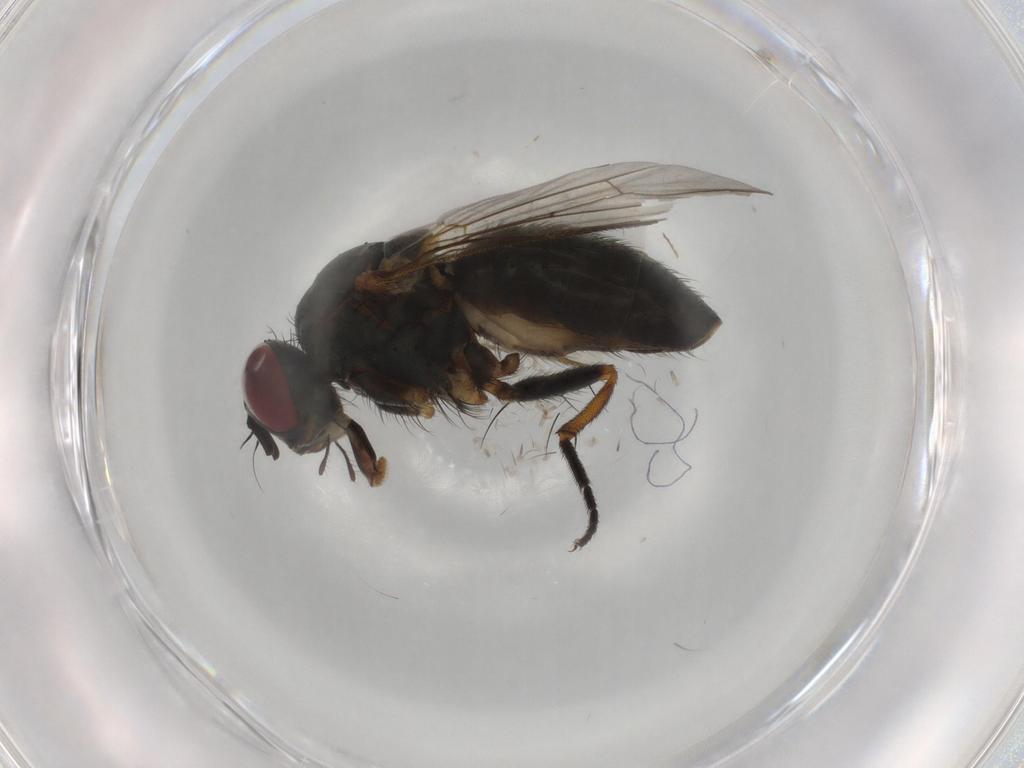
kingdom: Animalia
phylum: Arthropoda
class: Insecta
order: Diptera
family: Muscidae
